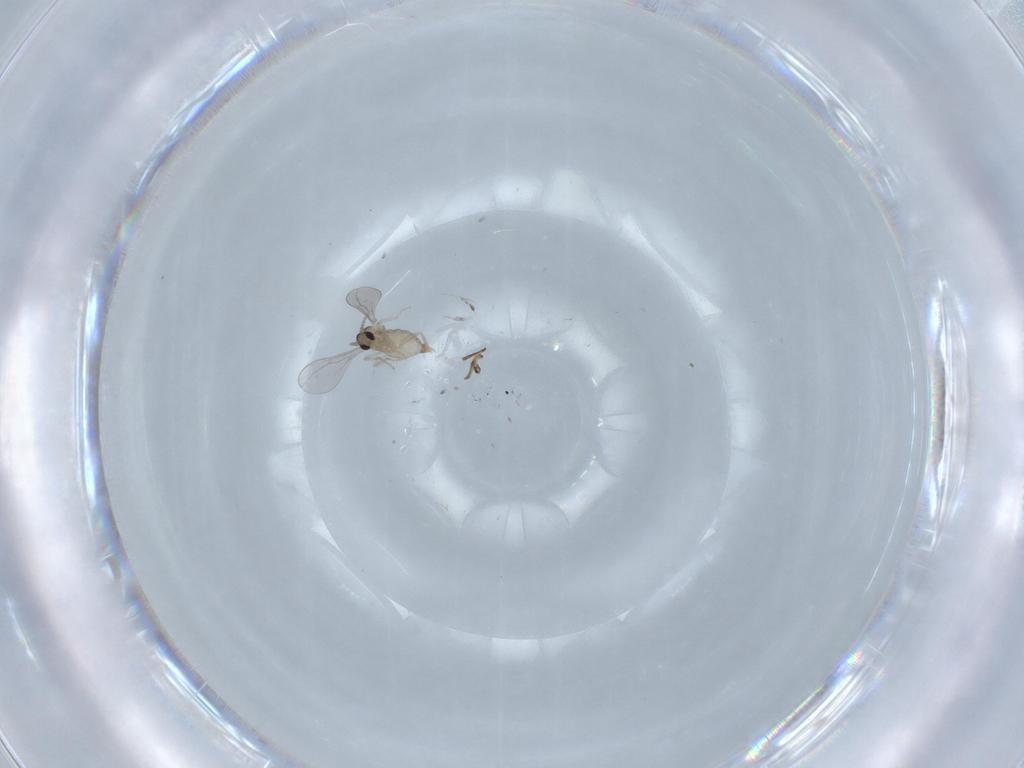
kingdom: Animalia
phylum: Arthropoda
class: Insecta
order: Diptera
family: Cecidomyiidae
